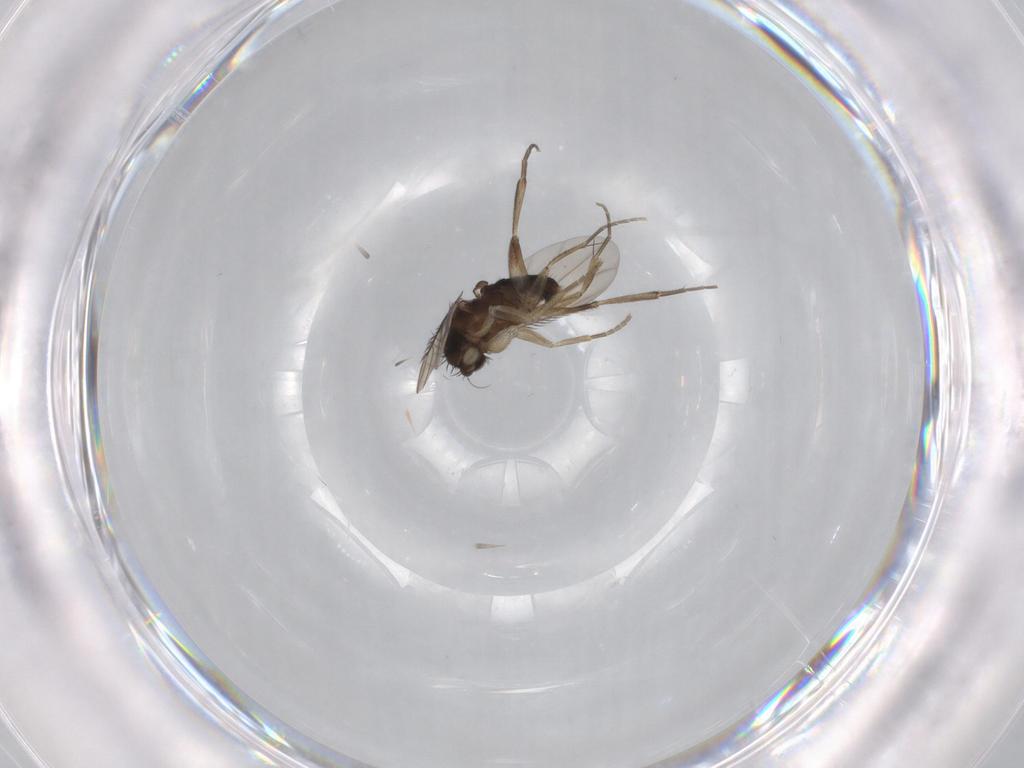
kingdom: Animalia
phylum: Arthropoda
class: Insecta
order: Diptera
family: Phoridae
